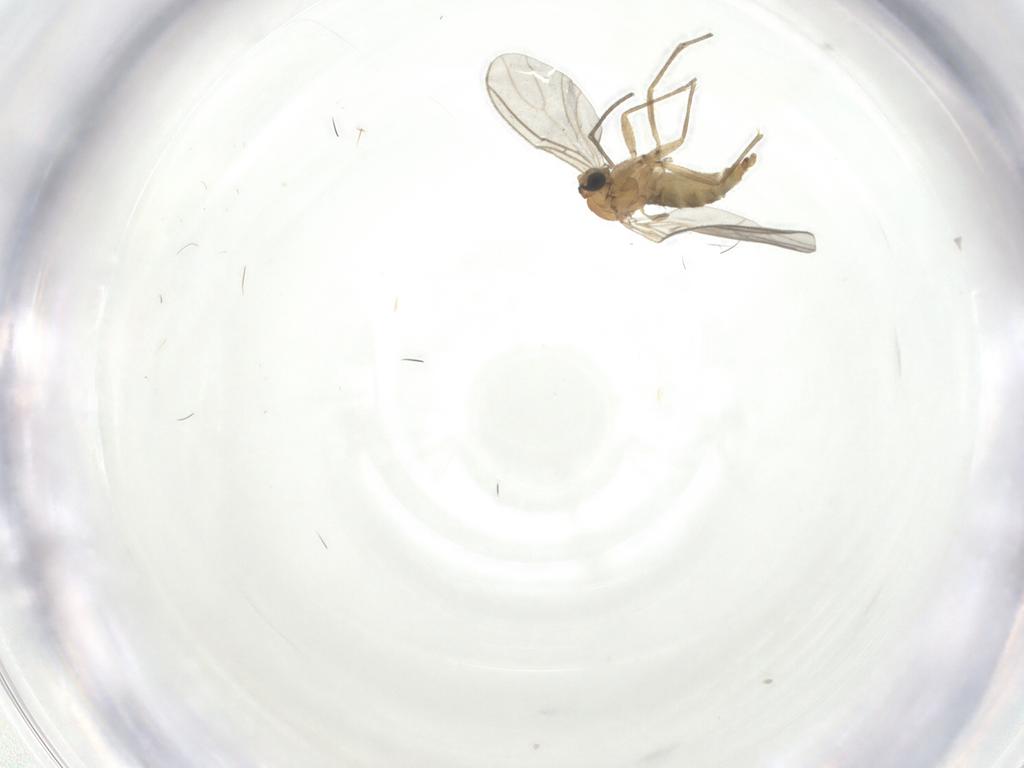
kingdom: Animalia
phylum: Arthropoda
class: Insecta
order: Diptera
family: Sciaridae
